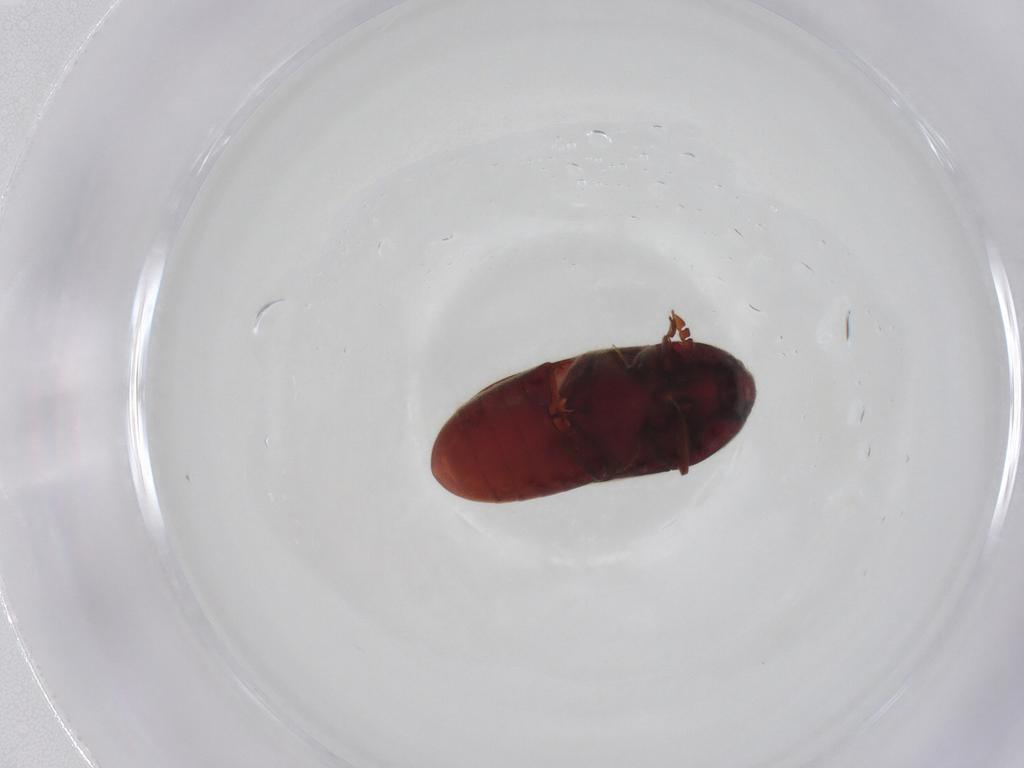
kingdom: Animalia
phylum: Arthropoda
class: Insecta
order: Coleoptera
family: Throscidae
